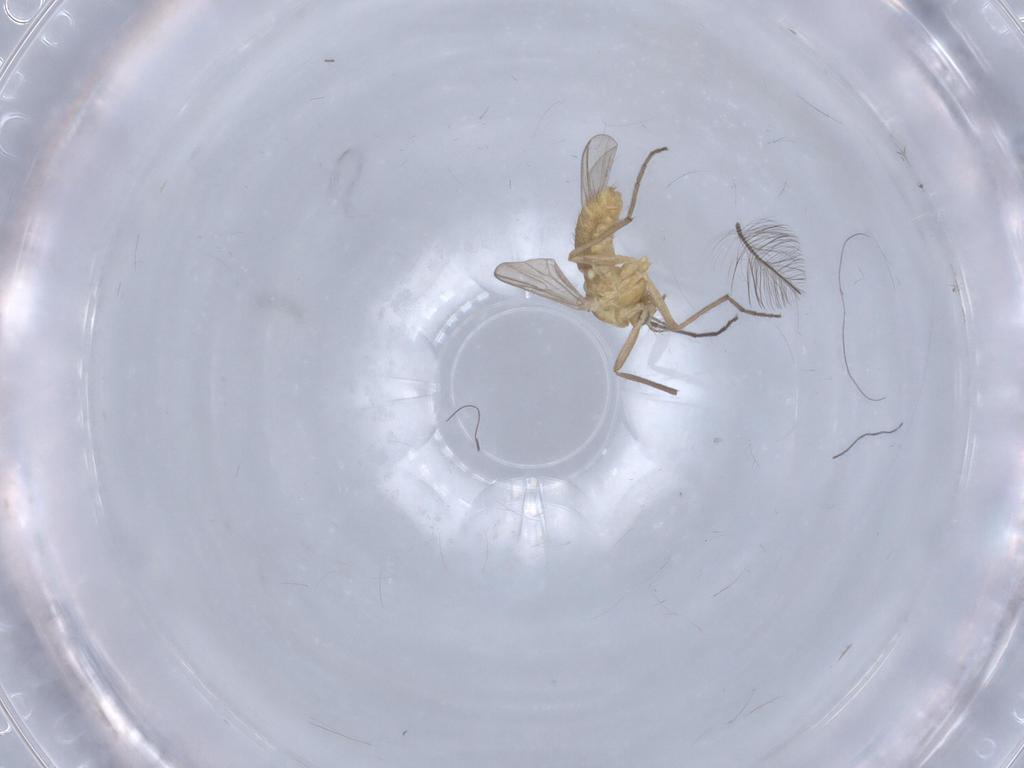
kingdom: Animalia
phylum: Arthropoda
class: Insecta
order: Diptera
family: Chironomidae
